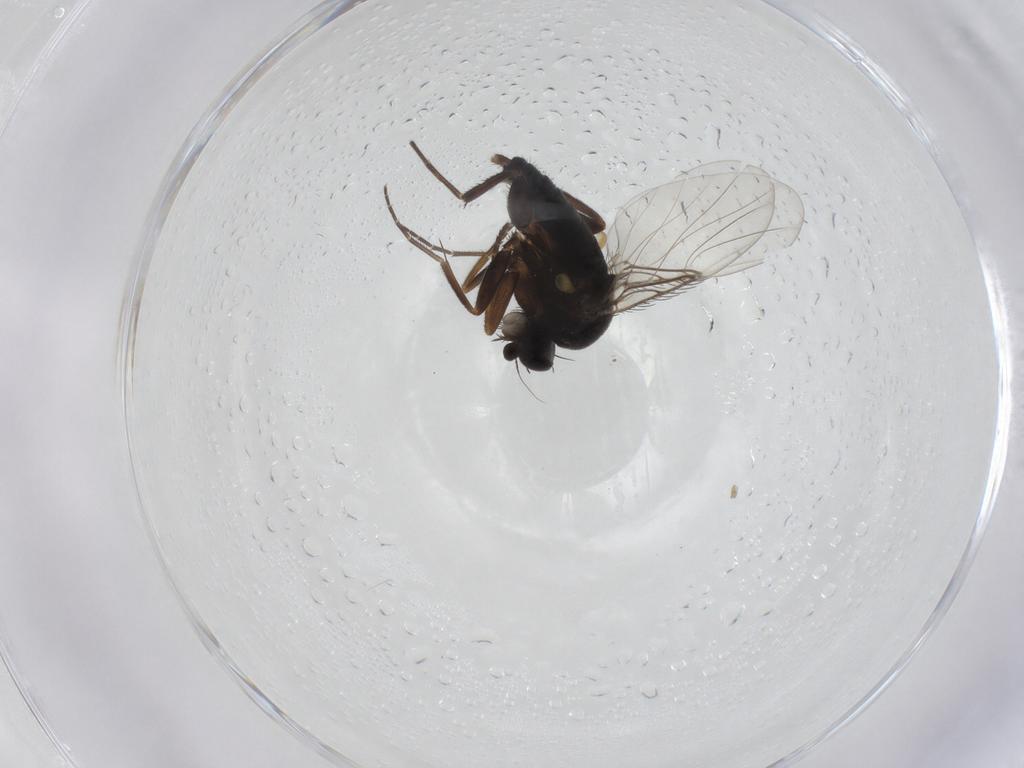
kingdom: Animalia
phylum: Arthropoda
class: Insecta
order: Diptera
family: Phoridae
